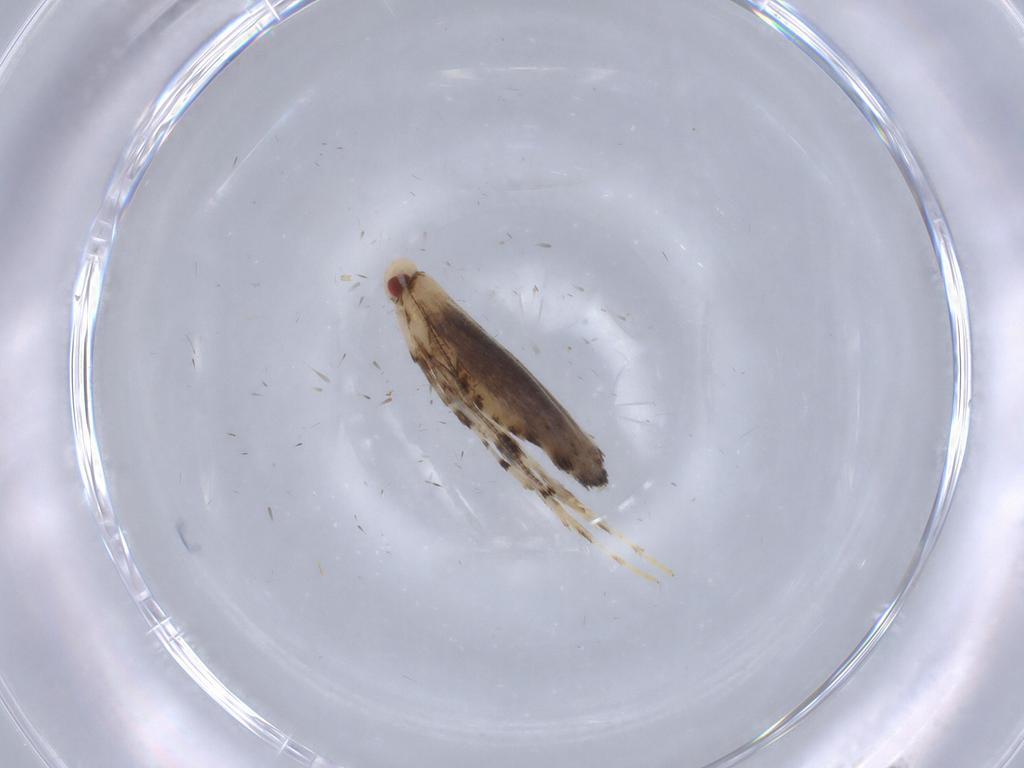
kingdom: Animalia
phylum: Arthropoda
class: Insecta
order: Lepidoptera
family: Gracillariidae
